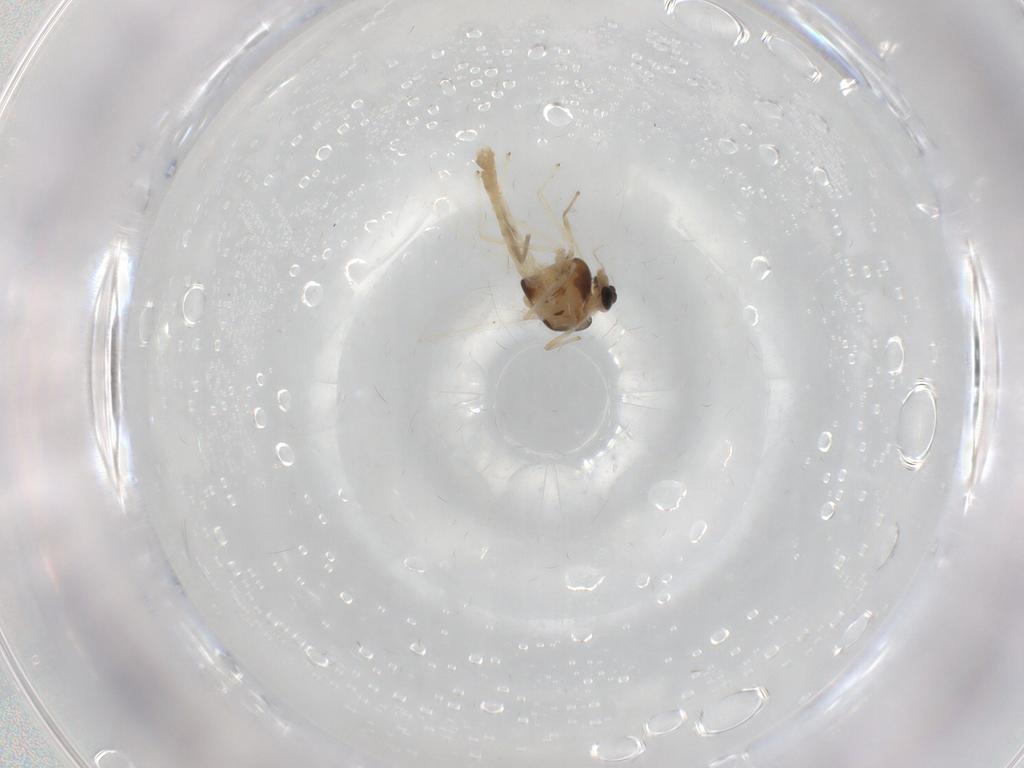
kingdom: Animalia
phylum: Arthropoda
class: Insecta
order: Diptera
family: Chironomidae
